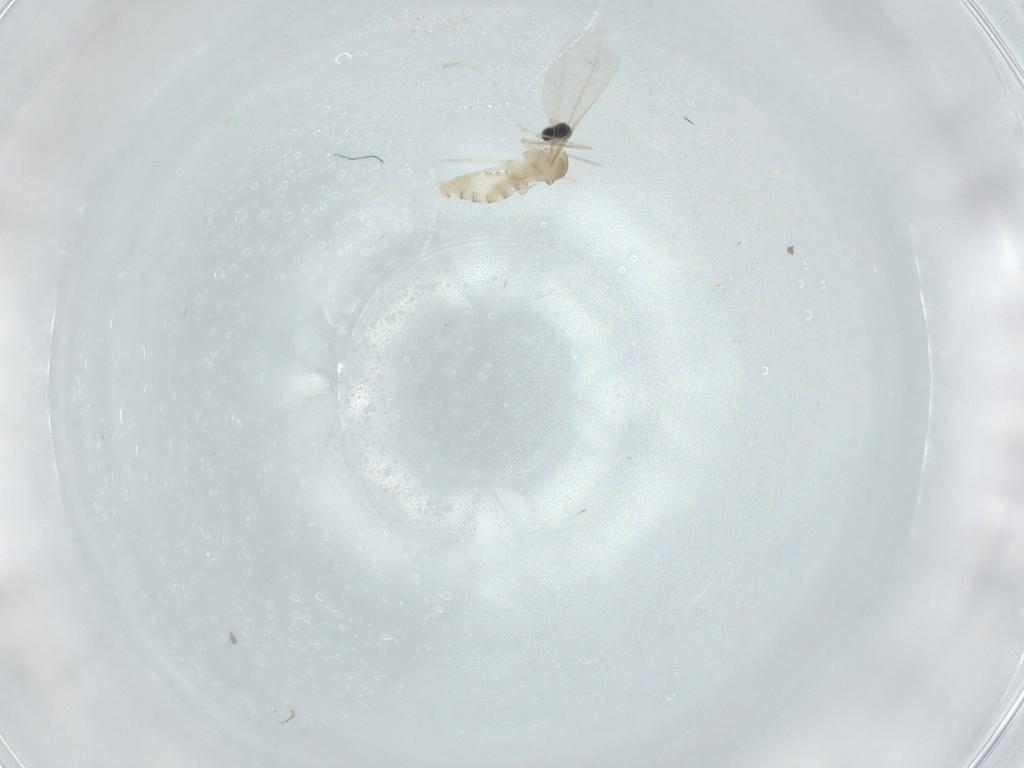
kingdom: Animalia
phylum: Arthropoda
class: Insecta
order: Diptera
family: Cecidomyiidae
